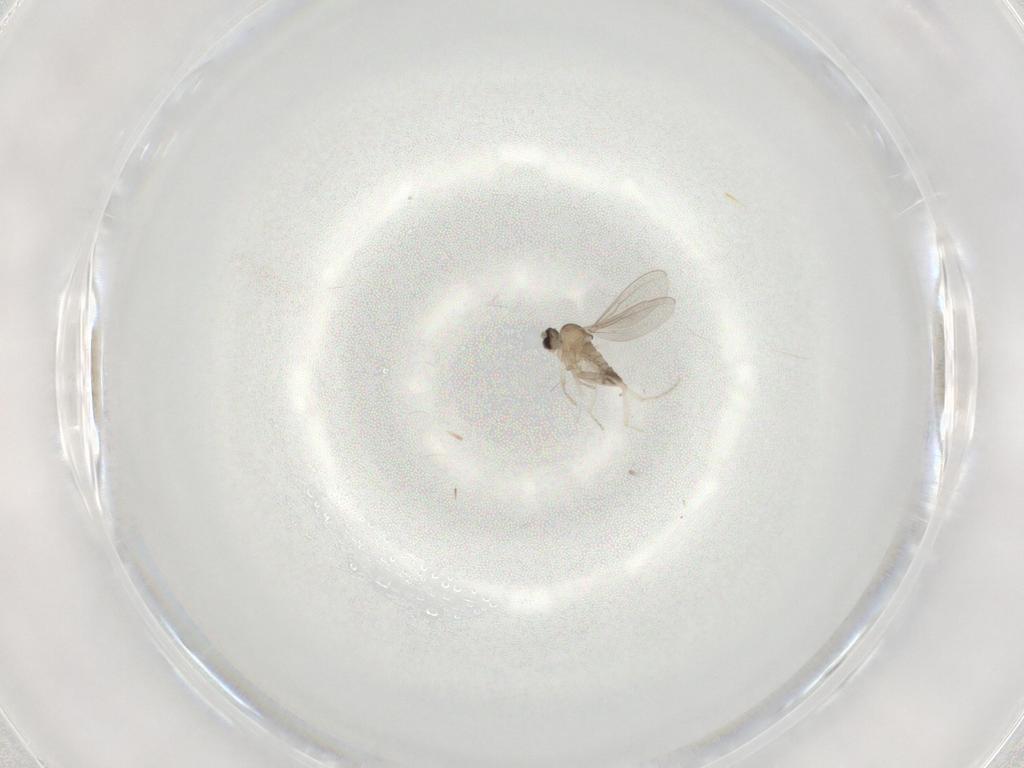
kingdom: Animalia
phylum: Arthropoda
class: Insecta
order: Diptera
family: Cecidomyiidae
